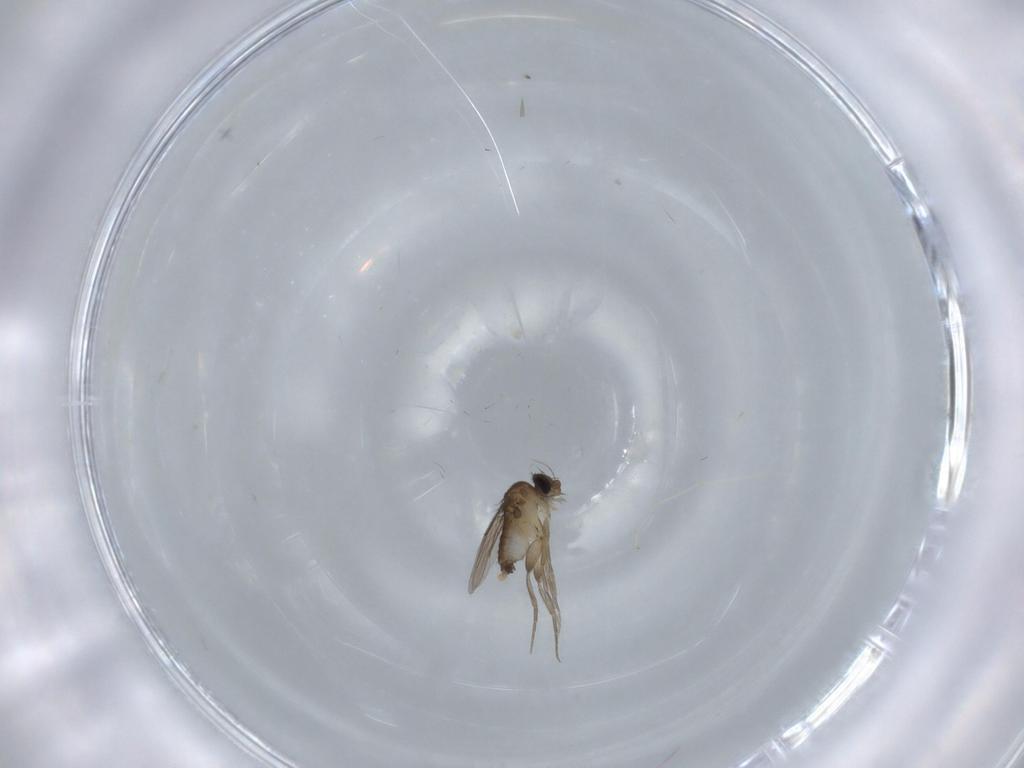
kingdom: Animalia
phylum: Arthropoda
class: Insecta
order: Diptera
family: Phoridae
